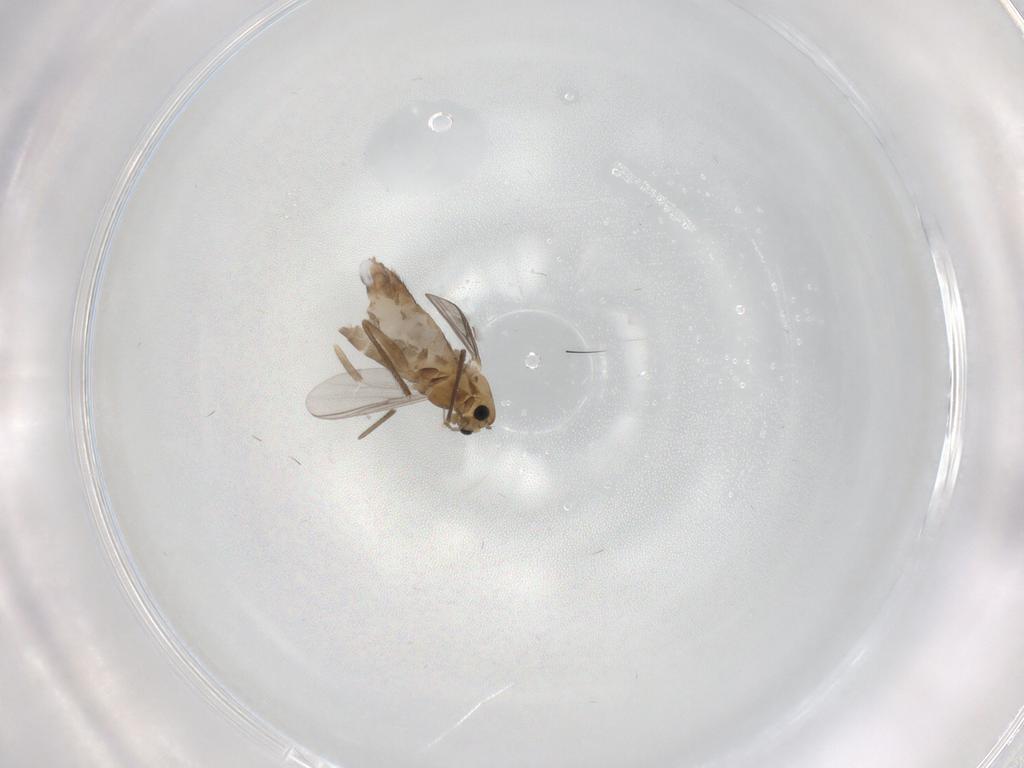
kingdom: Animalia
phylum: Arthropoda
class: Insecta
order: Diptera
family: Chironomidae
